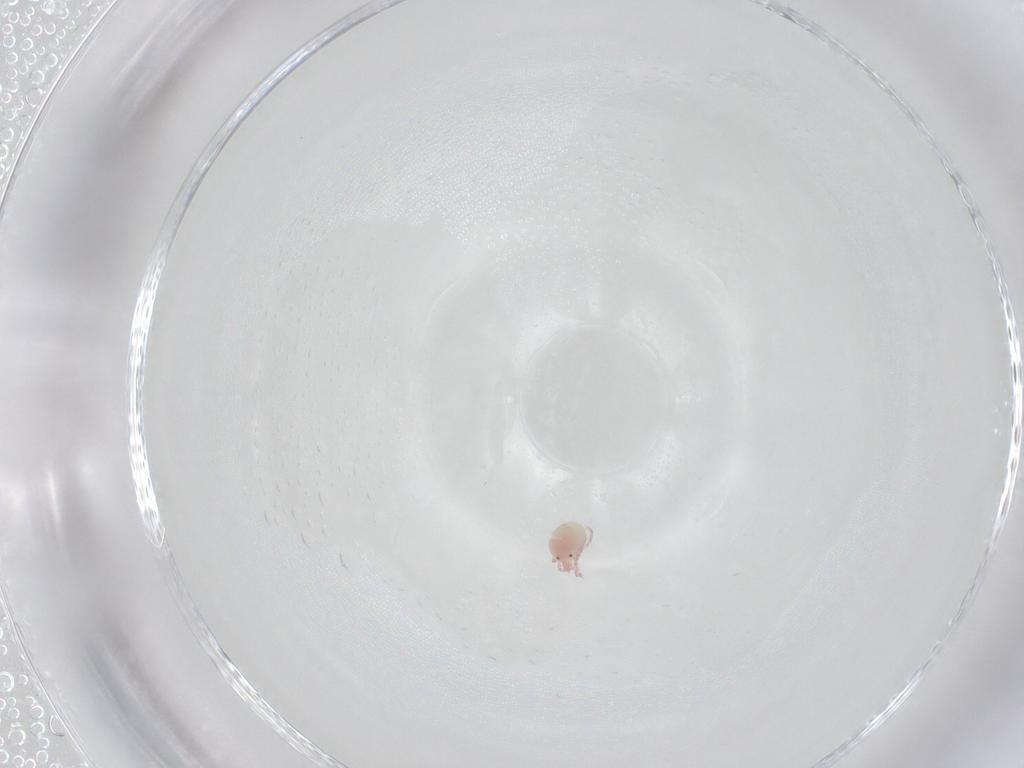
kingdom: Animalia
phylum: Arthropoda
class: Arachnida
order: Trombidiformes
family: Pionidae
